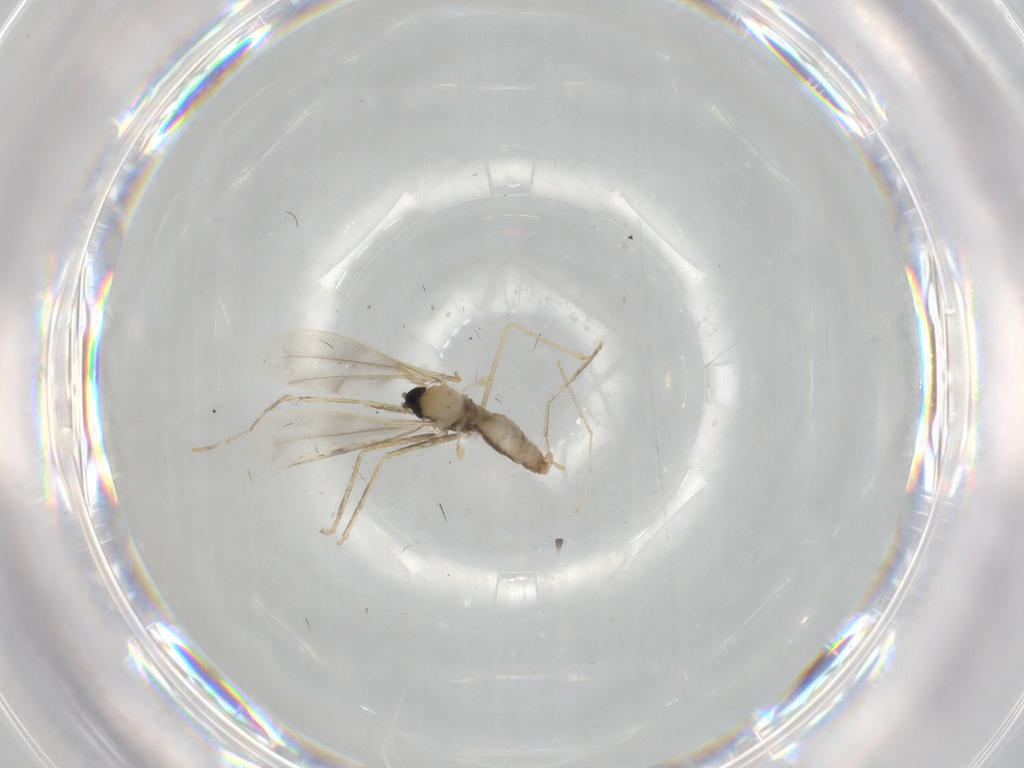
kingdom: Animalia
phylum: Arthropoda
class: Insecta
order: Diptera
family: Cecidomyiidae
